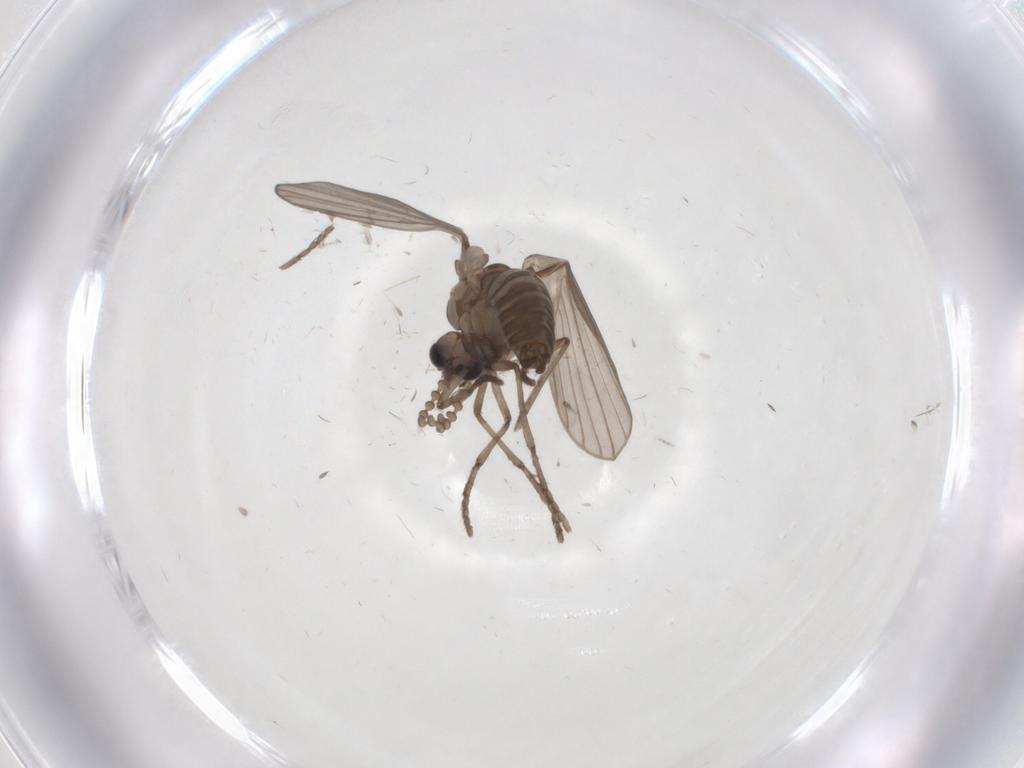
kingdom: Animalia
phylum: Arthropoda
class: Insecta
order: Diptera
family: Psychodidae
